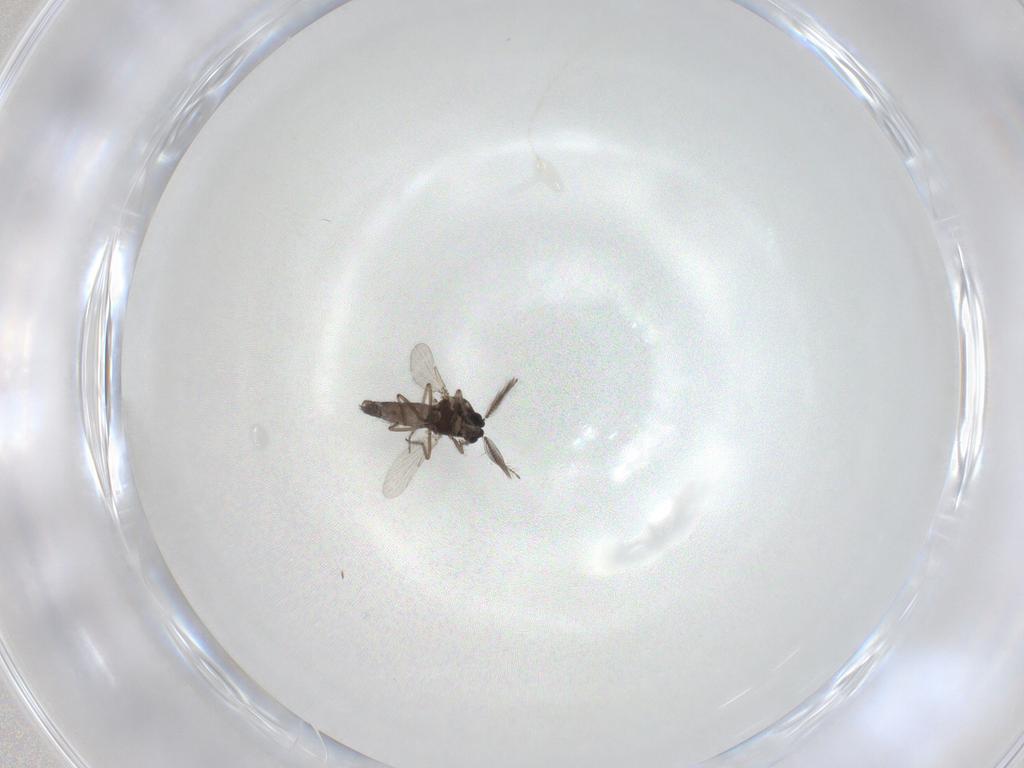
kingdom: Animalia
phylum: Arthropoda
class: Insecta
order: Diptera
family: Ceratopogonidae
